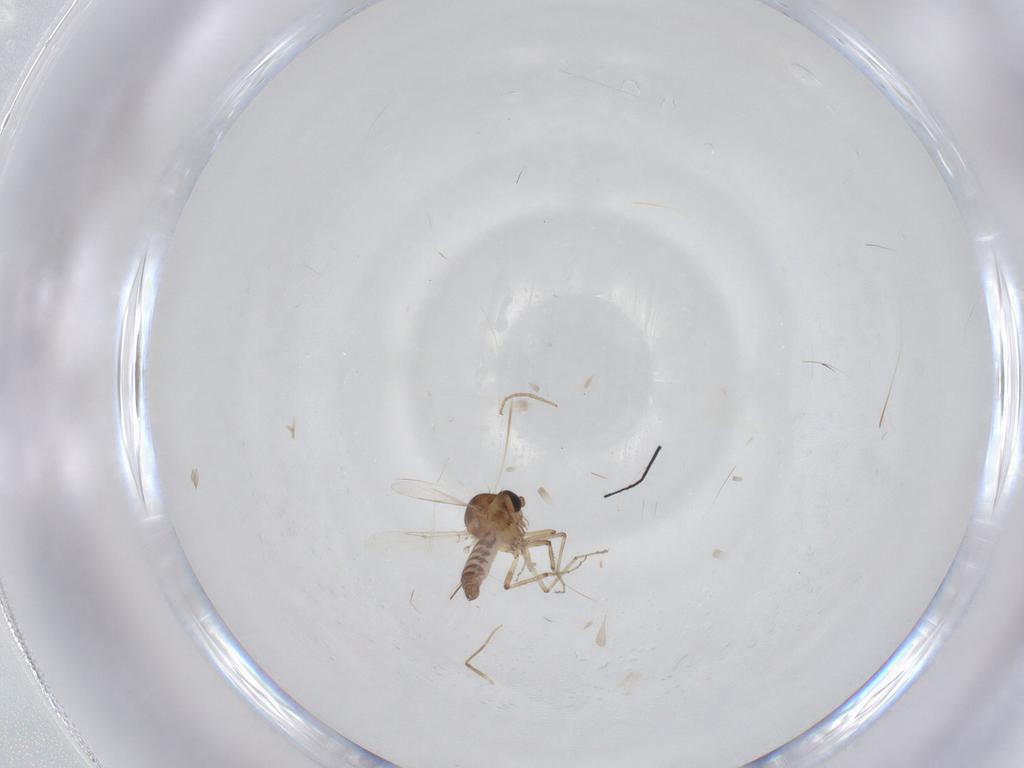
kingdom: Animalia
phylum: Arthropoda
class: Insecta
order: Diptera
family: Ceratopogonidae
